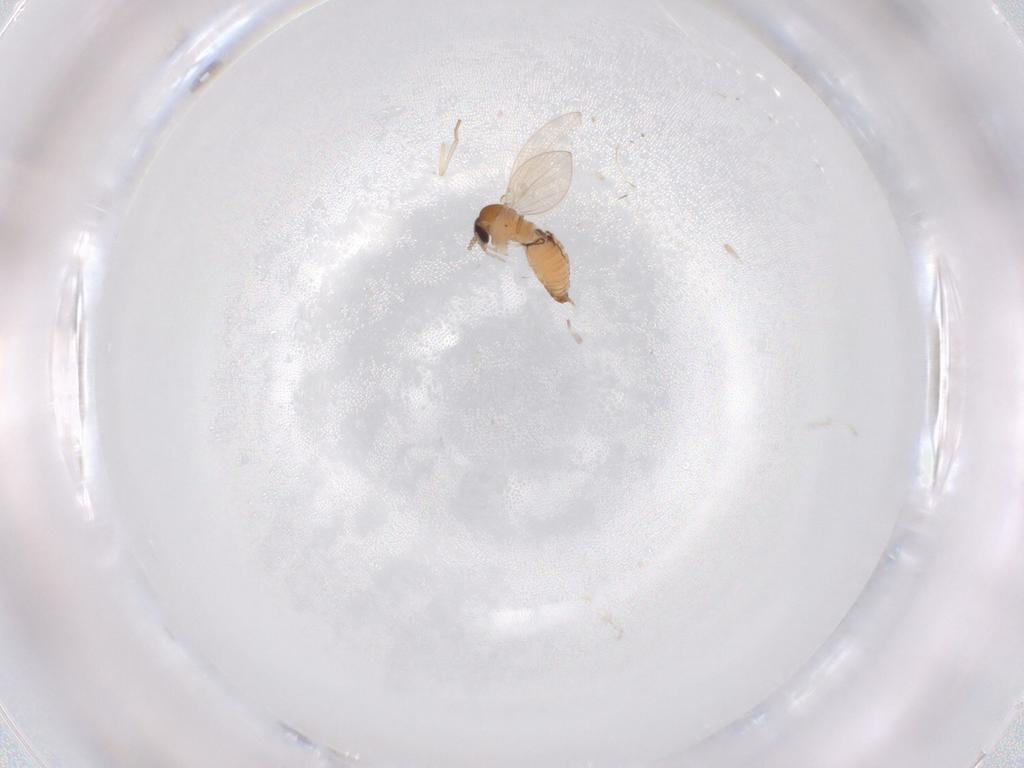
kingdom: Animalia
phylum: Arthropoda
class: Insecta
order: Diptera
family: Psychodidae
